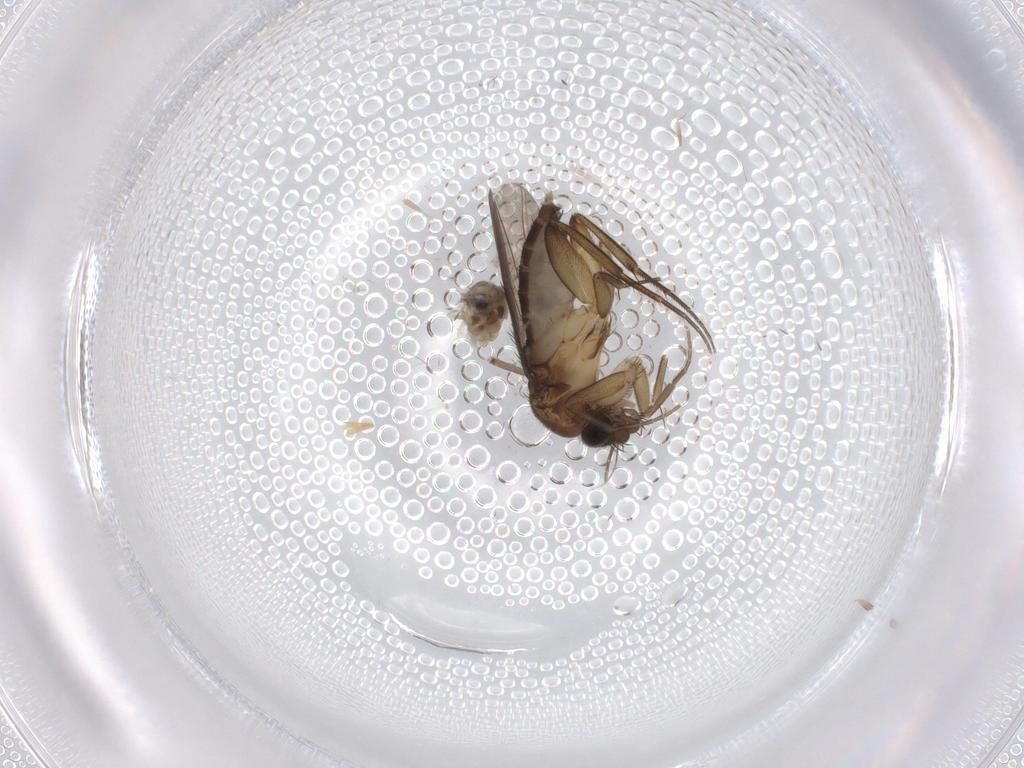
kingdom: Animalia
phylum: Arthropoda
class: Insecta
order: Diptera
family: Phoridae
